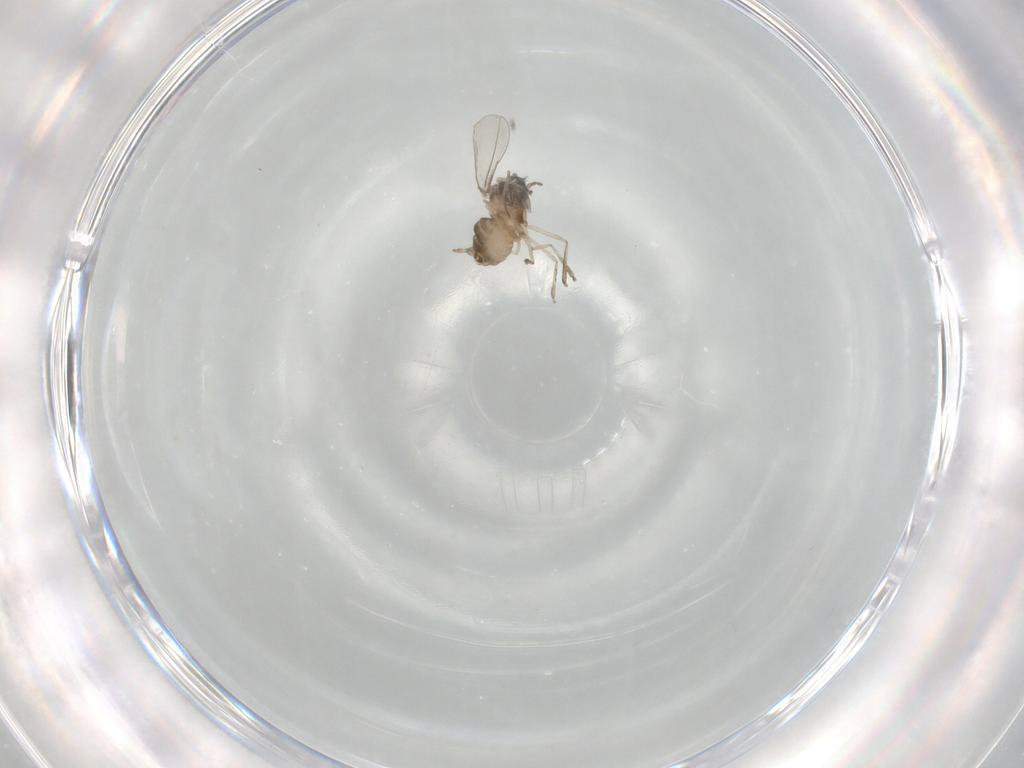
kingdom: Animalia
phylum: Arthropoda
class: Insecta
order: Diptera
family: Cecidomyiidae
